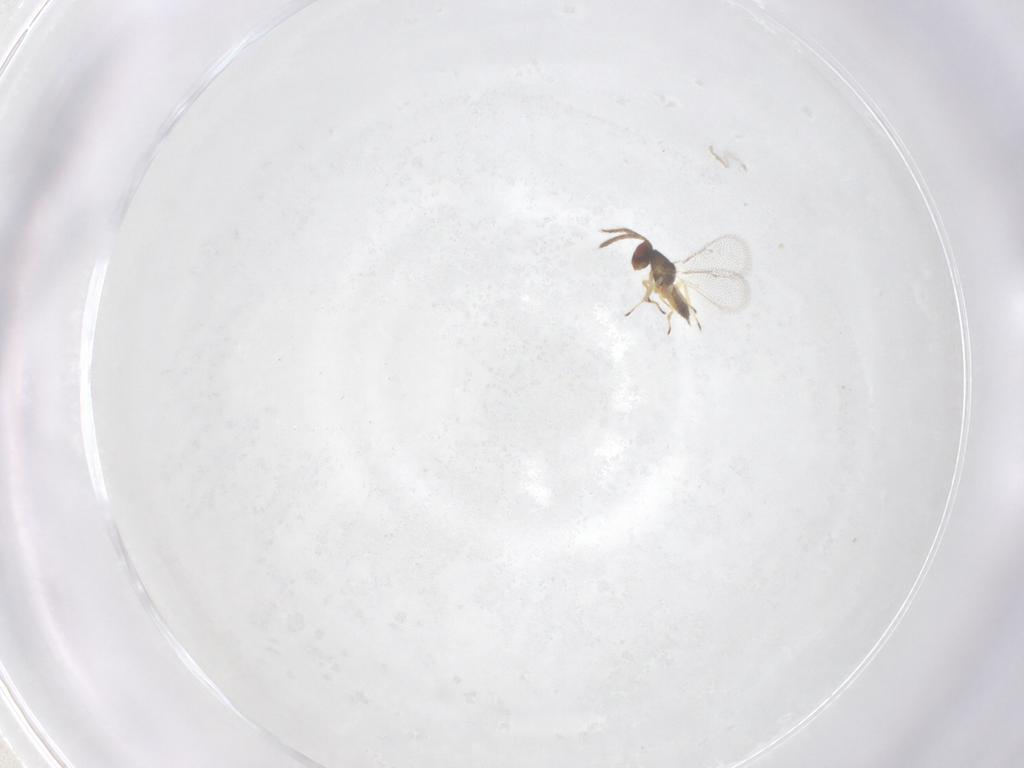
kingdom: Animalia
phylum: Arthropoda
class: Insecta
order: Hymenoptera
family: Eulophidae
